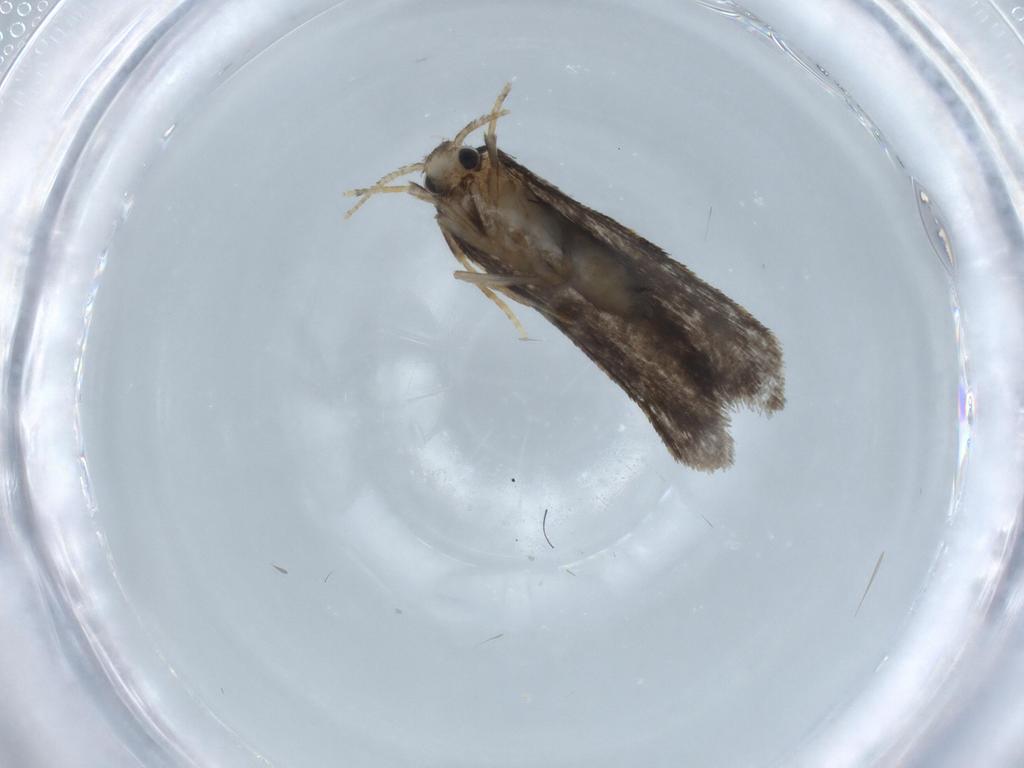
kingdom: Animalia
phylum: Arthropoda
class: Insecta
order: Lepidoptera
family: Psychidae
